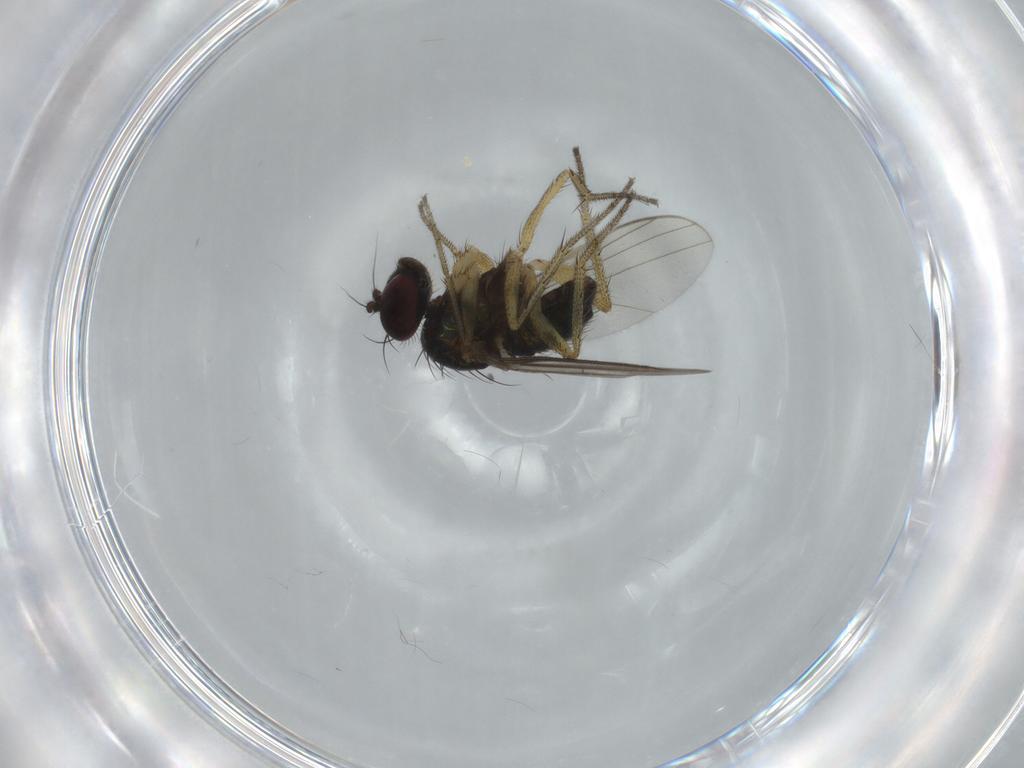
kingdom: Animalia
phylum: Arthropoda
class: Insecta
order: Diptera
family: Dolichopodidae
